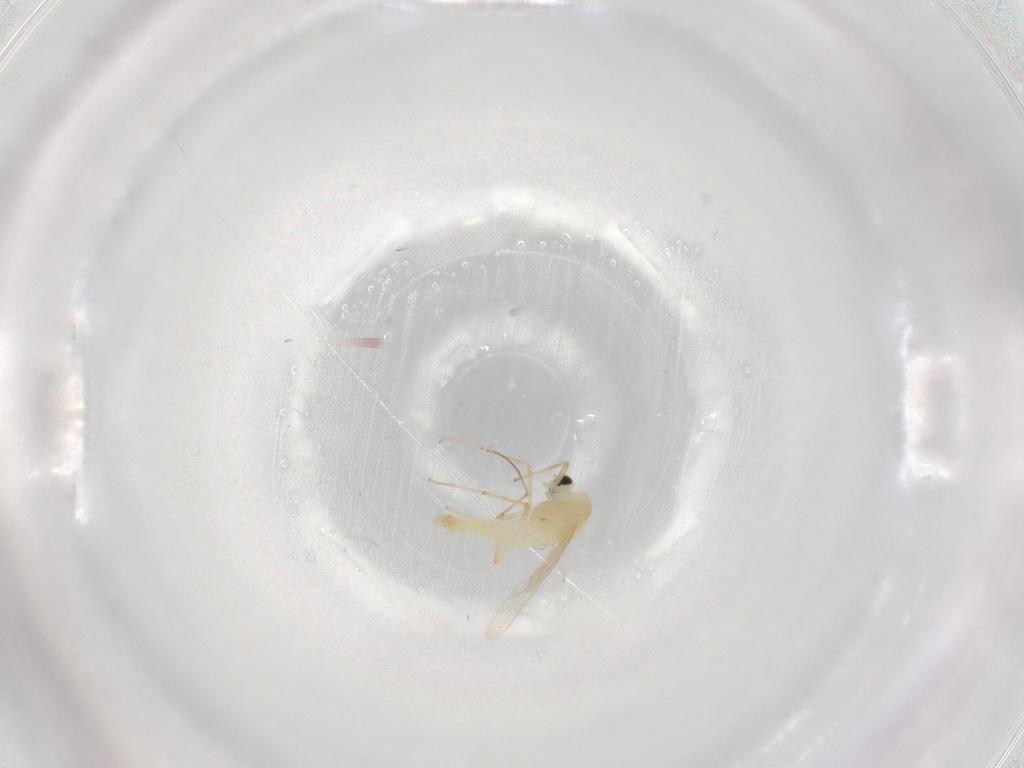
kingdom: Animalia
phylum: Arthropoda
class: Insecta
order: Diptera
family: Chironomidae
